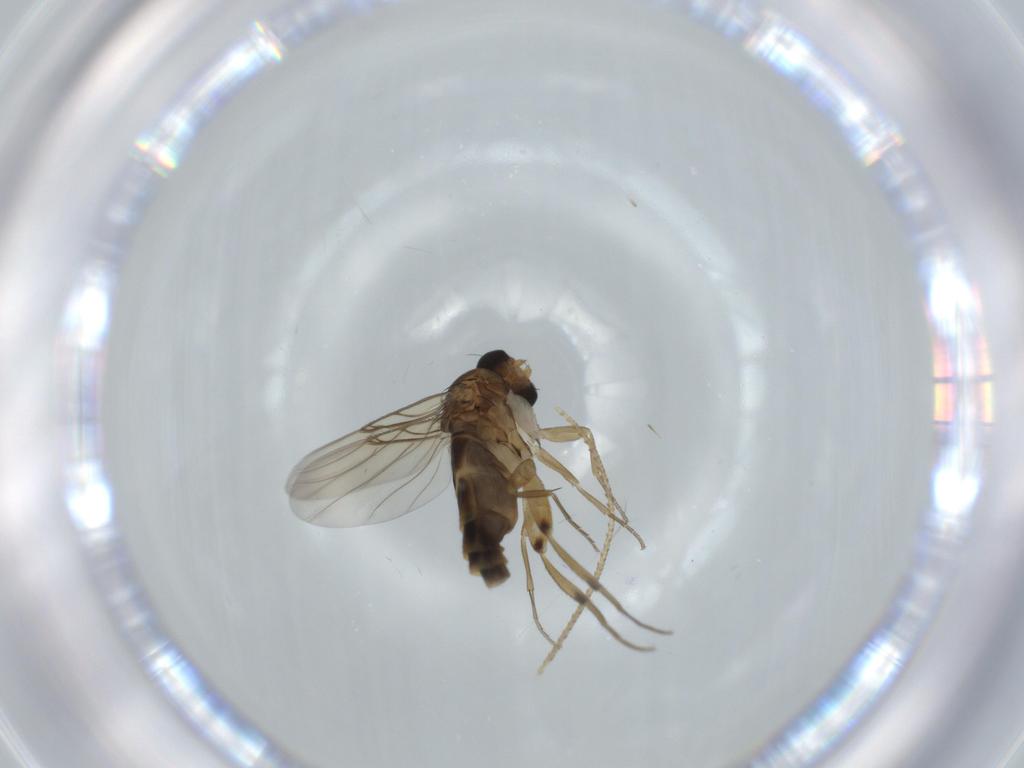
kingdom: Animalia
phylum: Arthropoda
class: Insecta
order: Diptera
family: Phoridae
